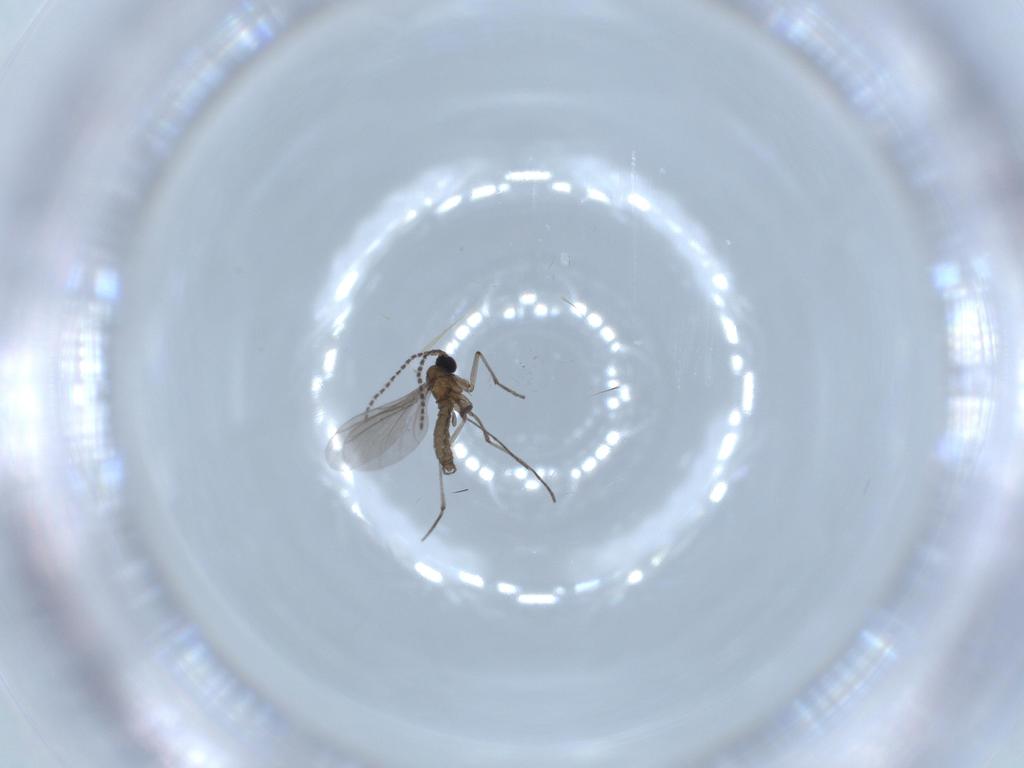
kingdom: Animalia
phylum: Arthropoda
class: Insecta
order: Diptera
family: Sciaridae
